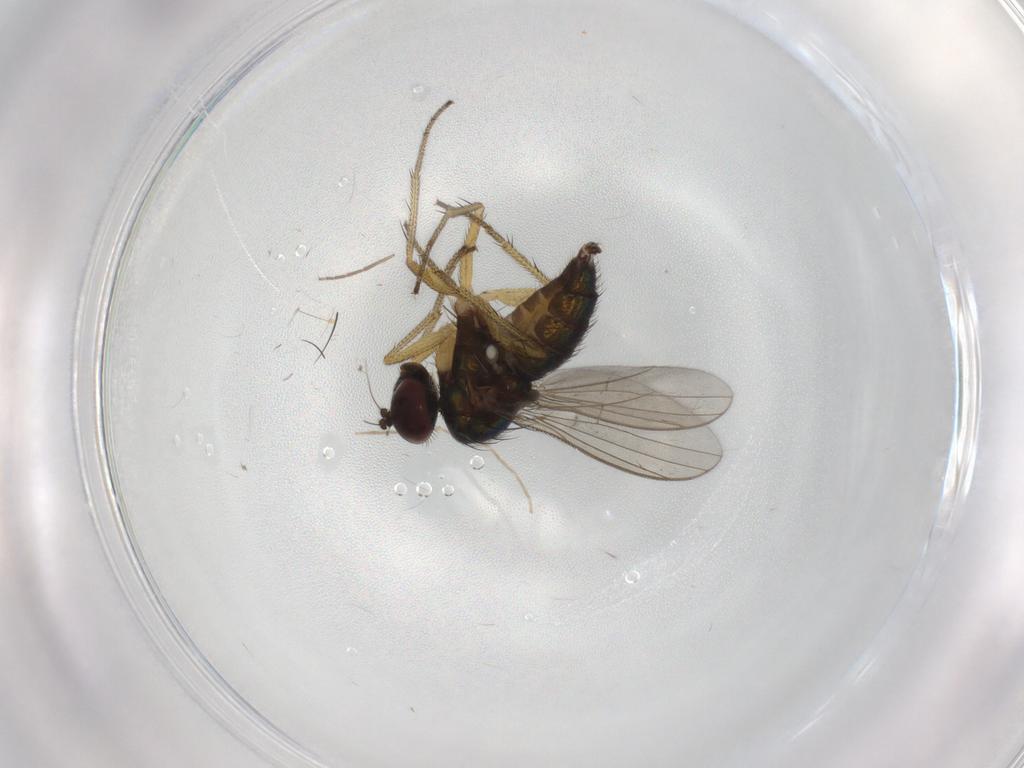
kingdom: Animalia
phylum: Arthropoda
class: Insecta
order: Diptera
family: Chironomidae
